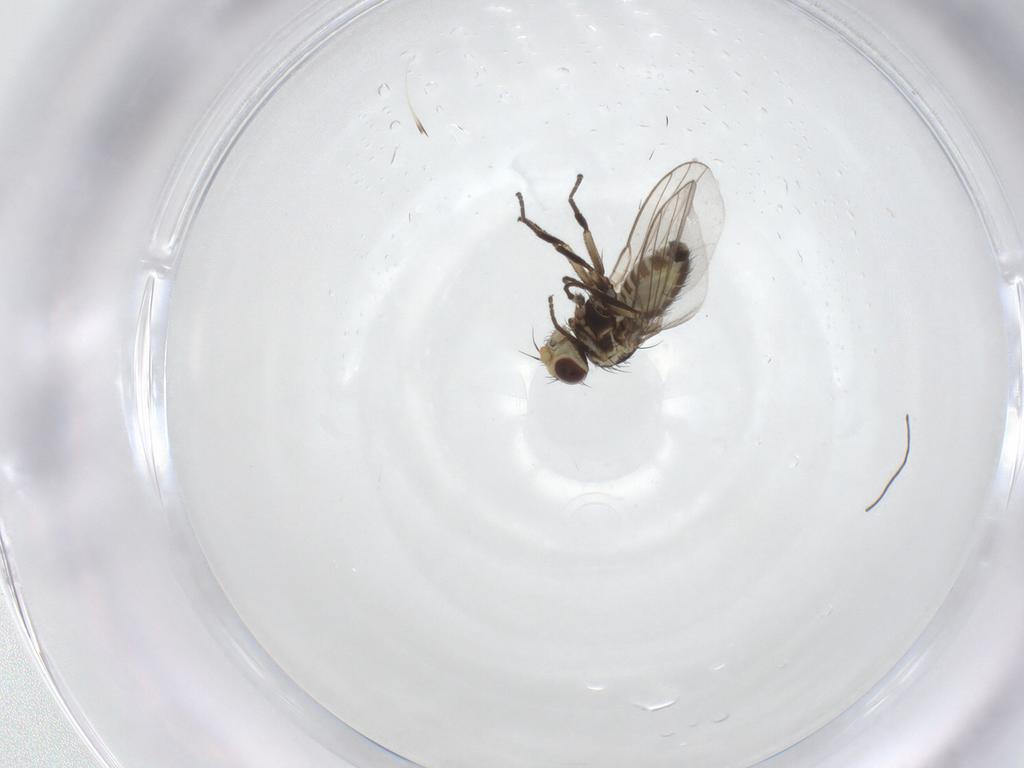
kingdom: Animalia
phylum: Arthropoda
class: Insecta
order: Diptera
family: Agromyzidae
